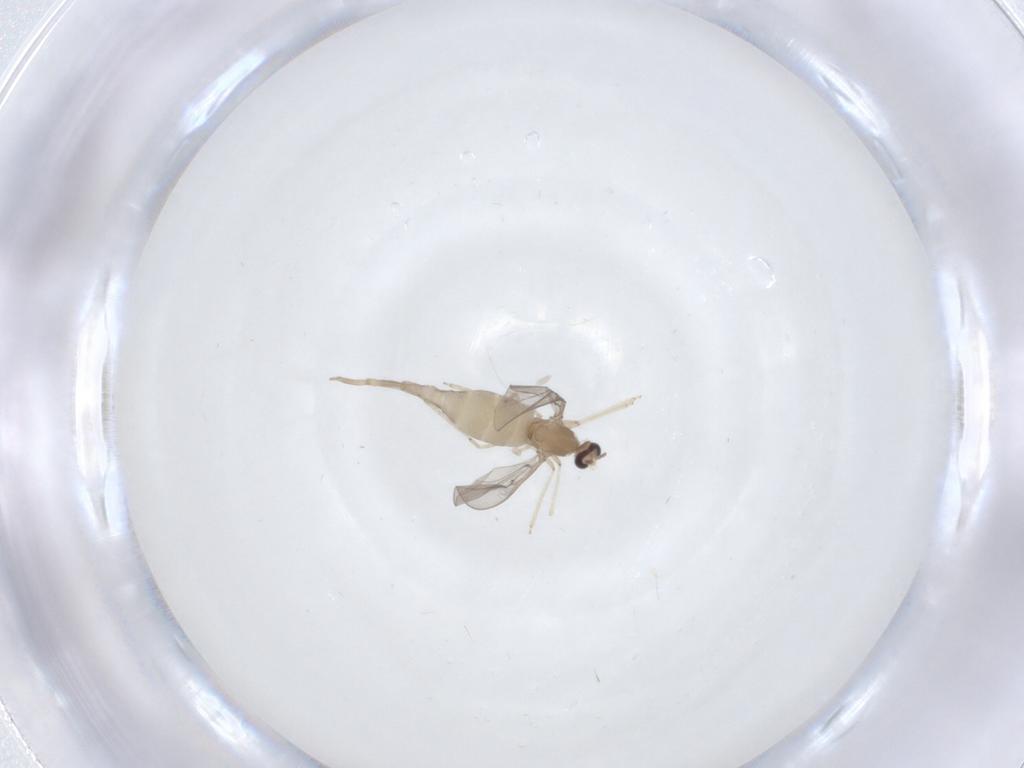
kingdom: Animalia
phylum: Arthropoda
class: Insecta
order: Diptera
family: Cecidomyiidae
